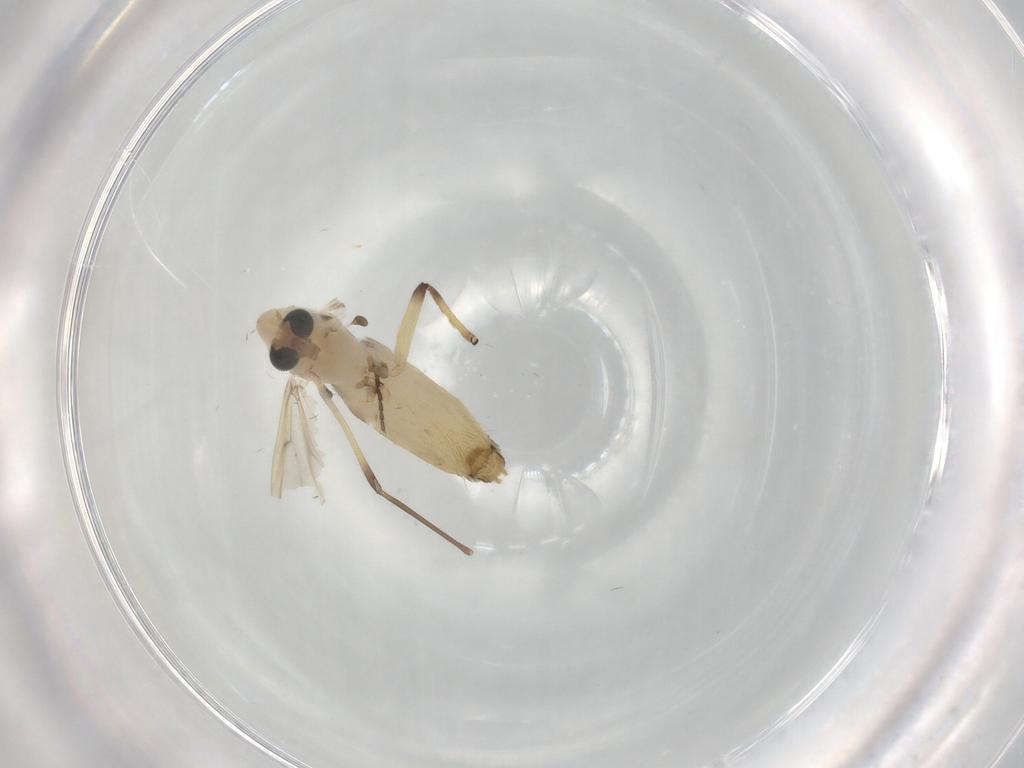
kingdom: Animalia
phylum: Arthropoda
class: Insecta
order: Diptera
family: Chironomidae
